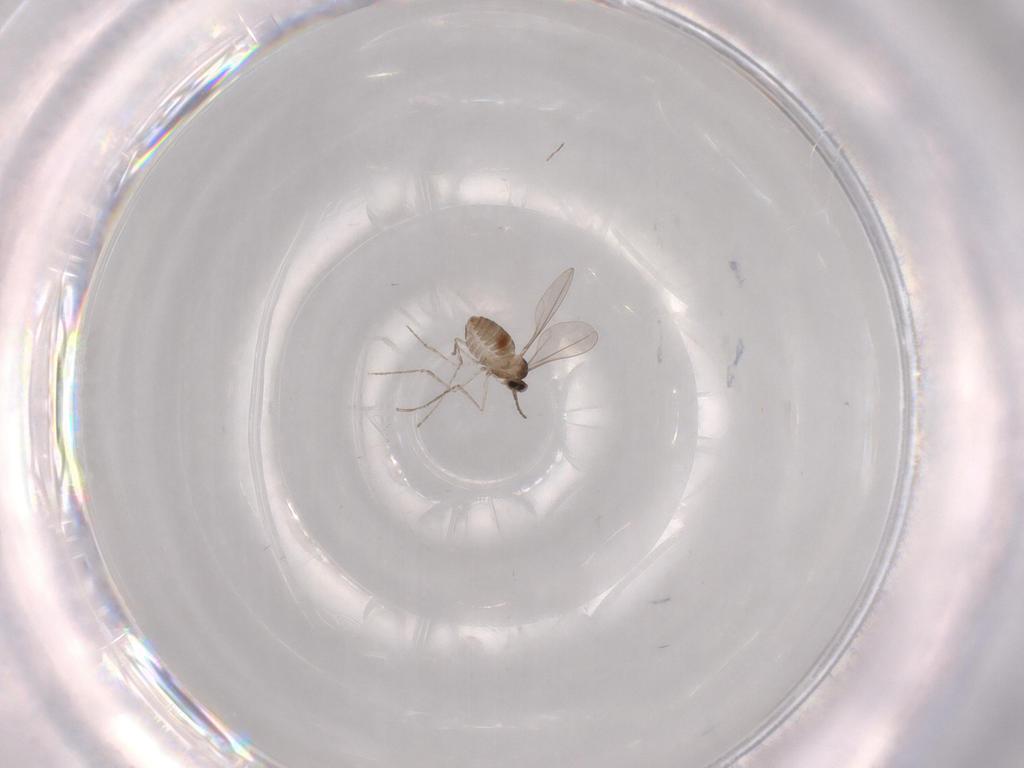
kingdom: Animalia
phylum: Arthropoda
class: Insecta
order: Diptera
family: Cecidomyiidae
